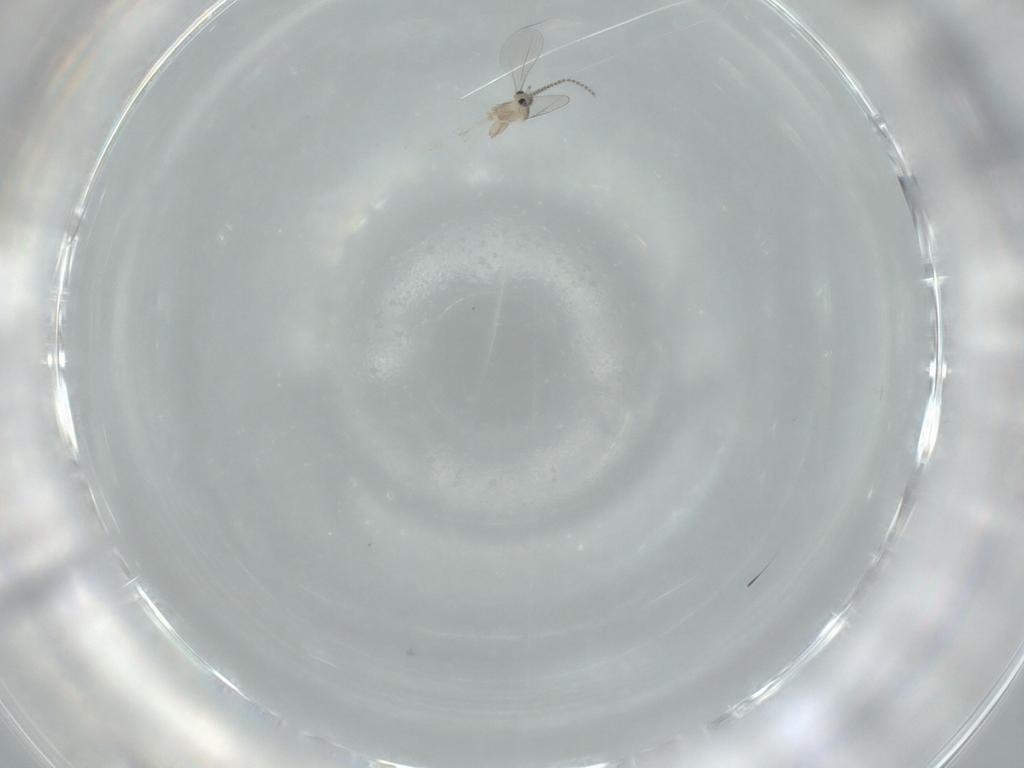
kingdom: Animalia
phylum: Arthropoda
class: Insecta
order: Diptera
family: Cecidomyiidae
